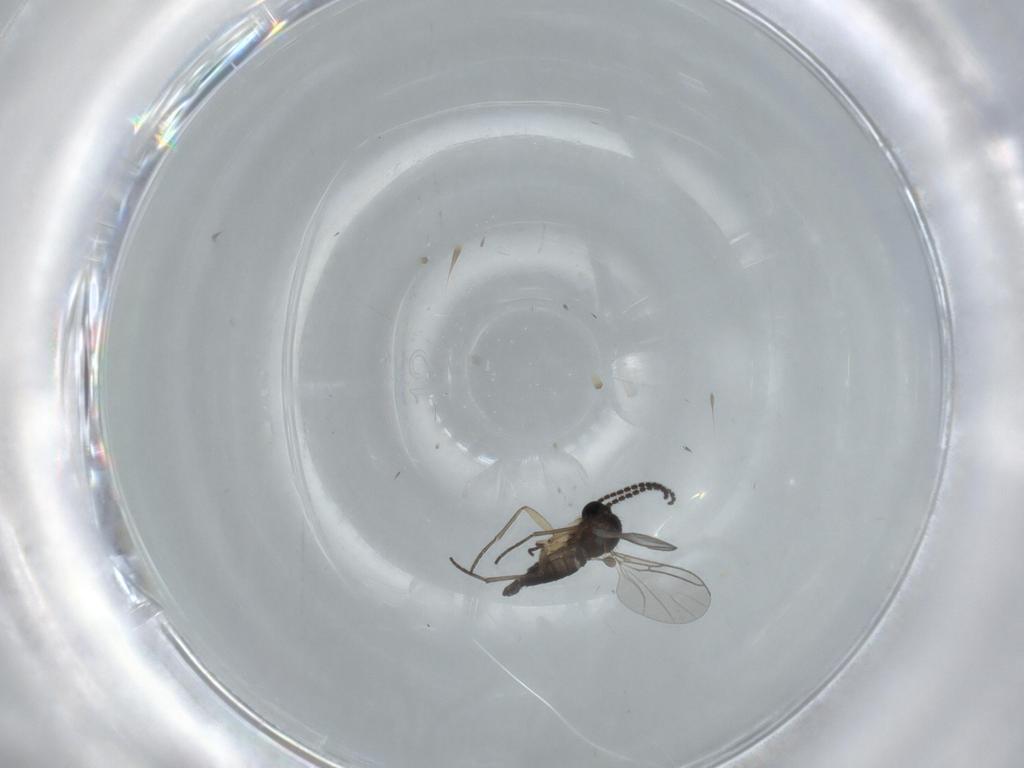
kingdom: Animalia
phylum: Arthropoda
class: Insecta
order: Diptera
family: Sciaridae
